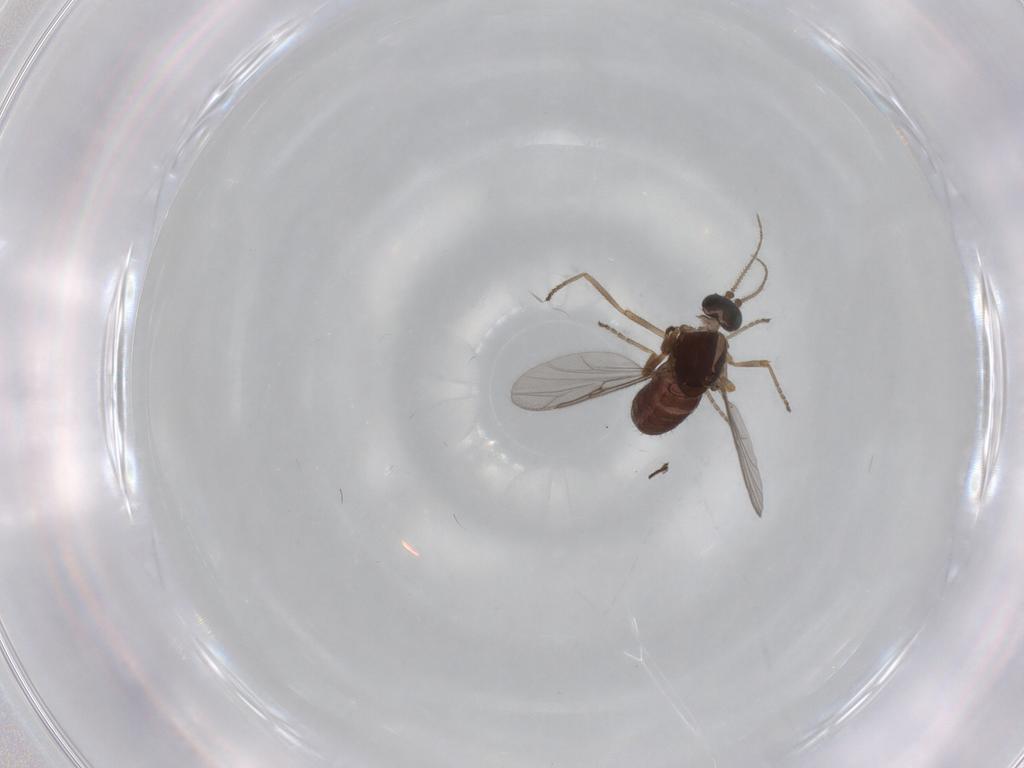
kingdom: Animalia
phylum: Arthropoda
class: Insecta
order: Diptera
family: Ceratopogonidae
